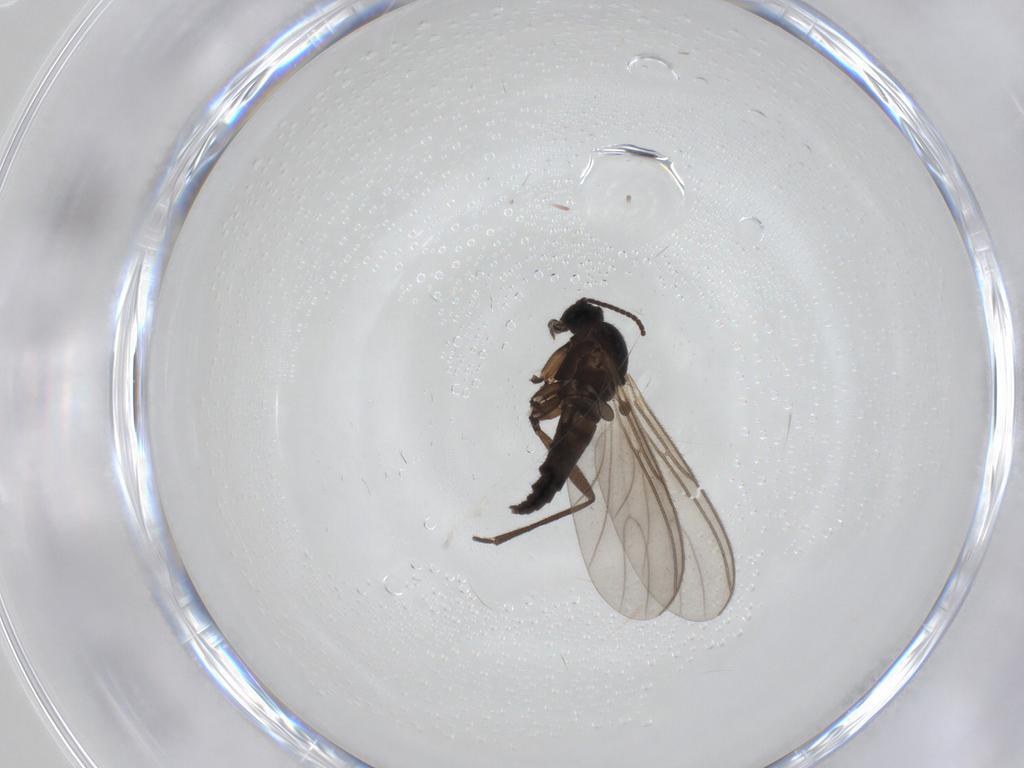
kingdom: Animalia
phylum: Arthropoda
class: Insecta
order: Diptera
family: Sciaridae
